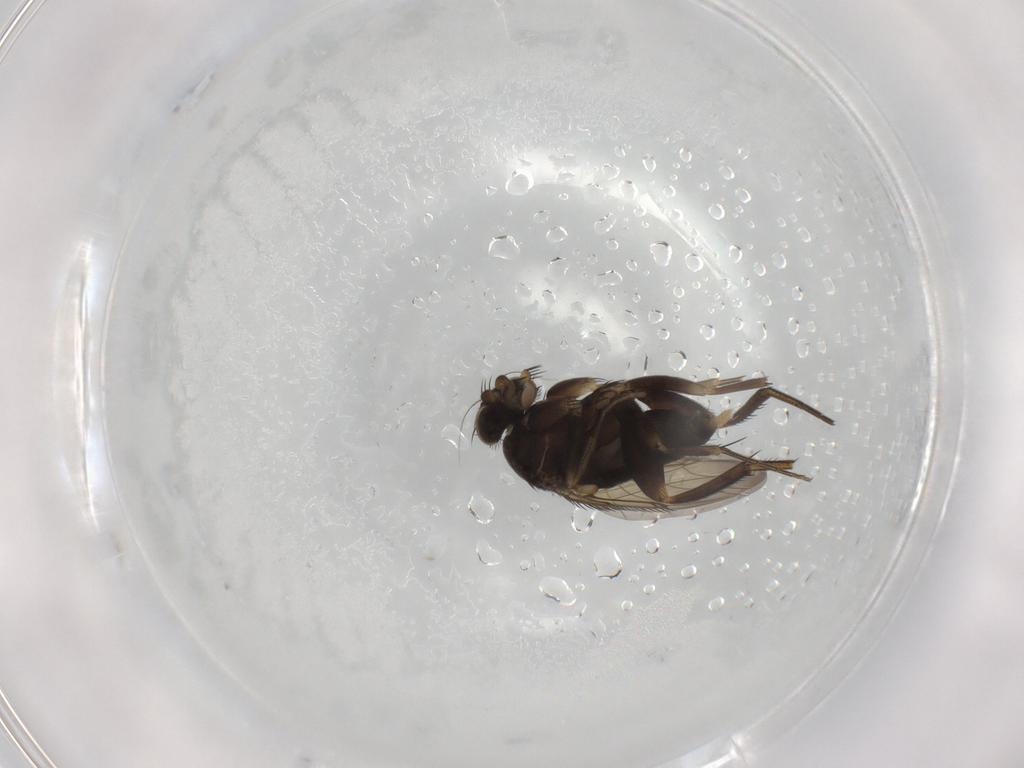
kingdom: Animalia
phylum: Arthropoda
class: Insecta
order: Diptera
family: Phoridae
